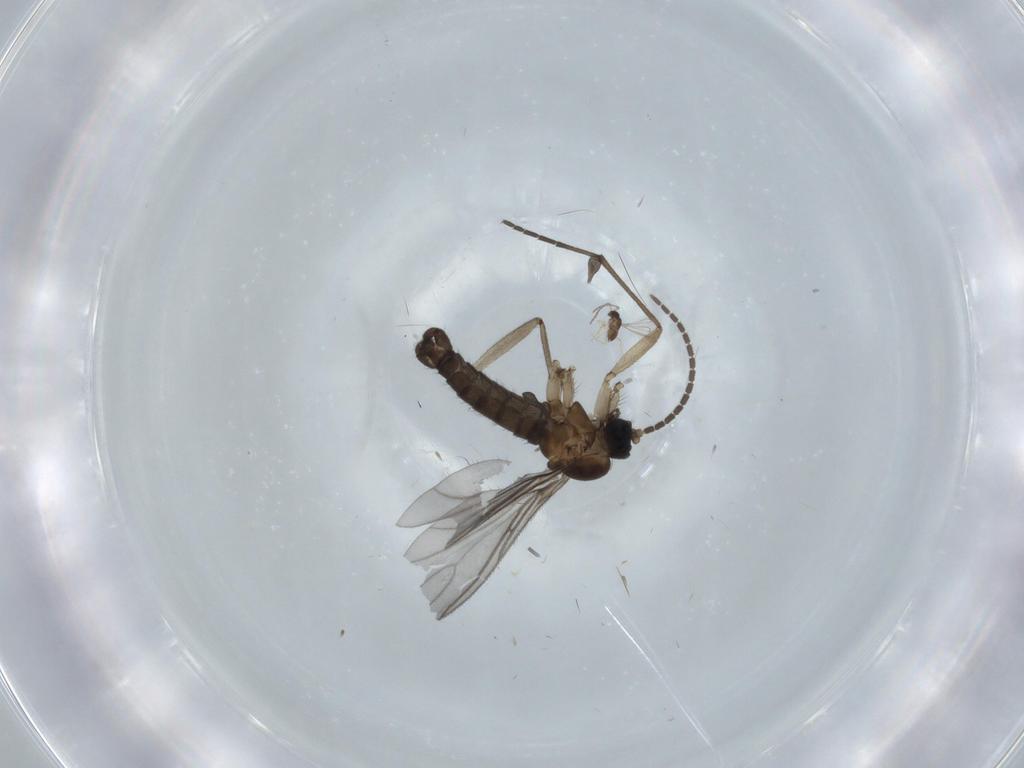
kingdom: Animalia
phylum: Arthropoda
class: Insecta
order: Diptera
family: Sciaridae
